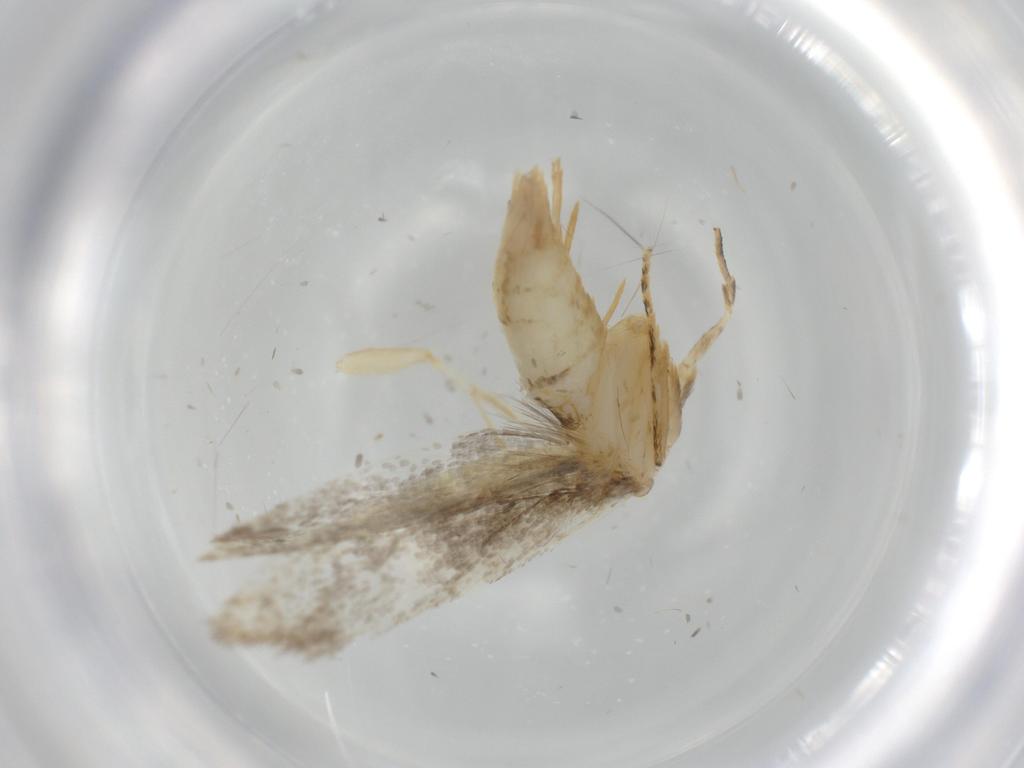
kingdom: Animalia
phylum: Arthropoda
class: Insecta
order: Lepidoptera
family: Tineidae
